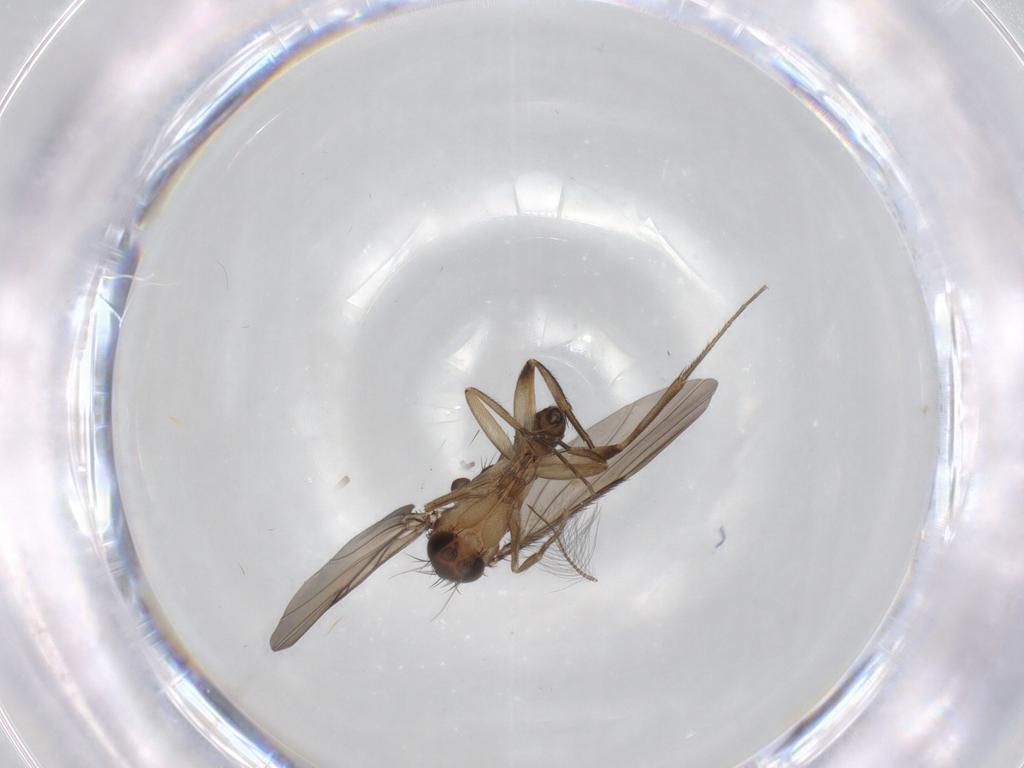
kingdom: Animalia
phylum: Arthropoda
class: Insecta
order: Diptera
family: Phoridae
